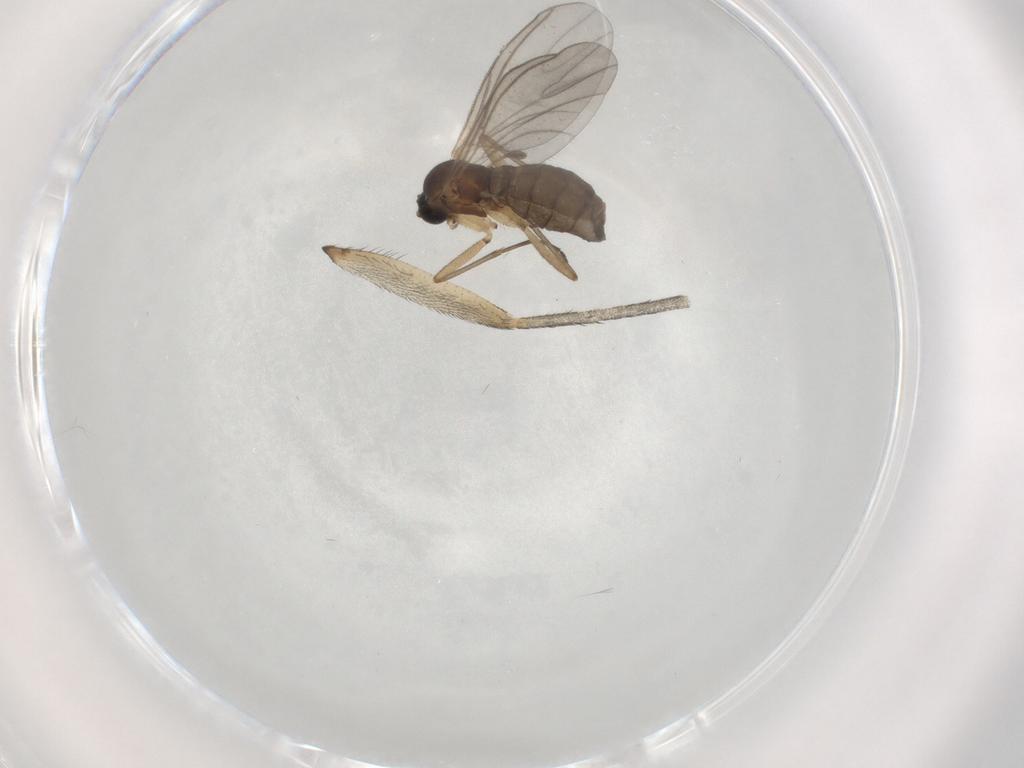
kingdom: Animalia
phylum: Arthropoda
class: Insecta
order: Diptera
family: Sciaridae
